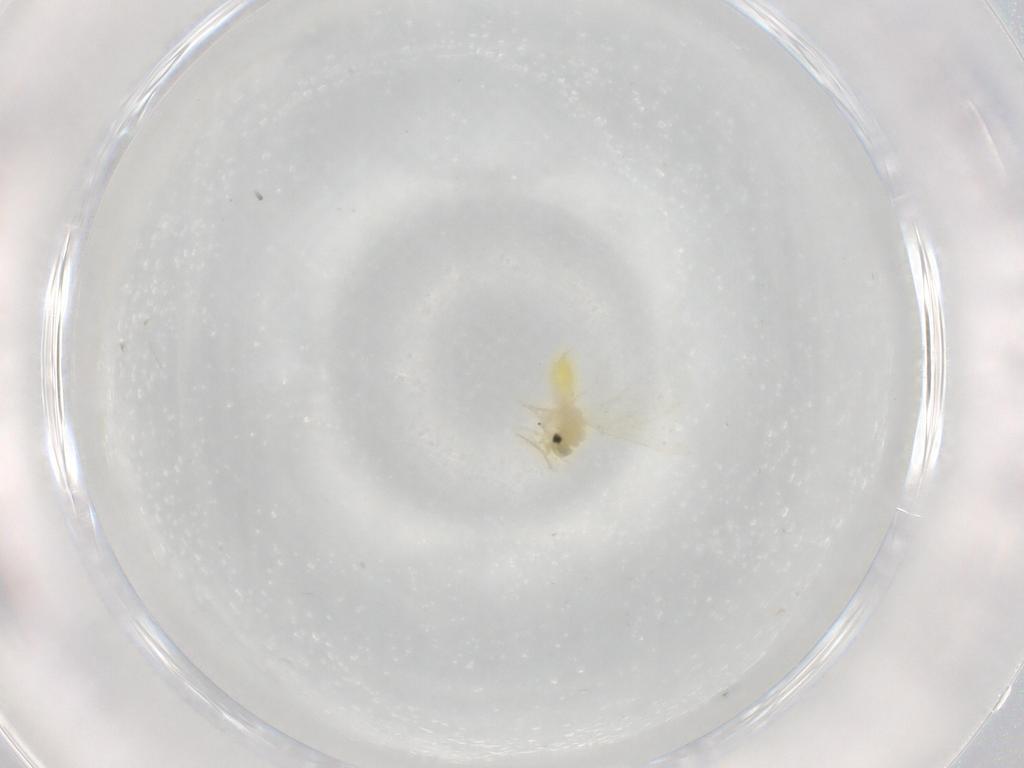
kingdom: Animalia
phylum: Arthropoda
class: Insecta
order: Hemiptera
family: Aleyrodidae
